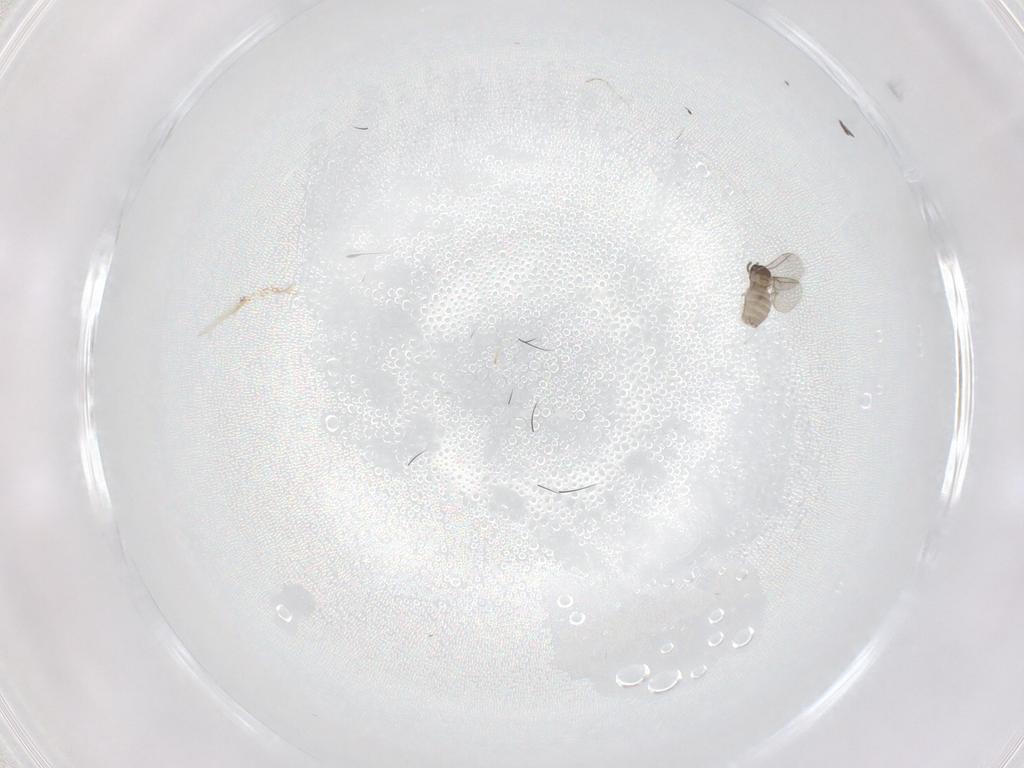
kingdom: Animalia
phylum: Arthropoda
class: Insecta
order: Diptera
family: Cecidomyiidae
